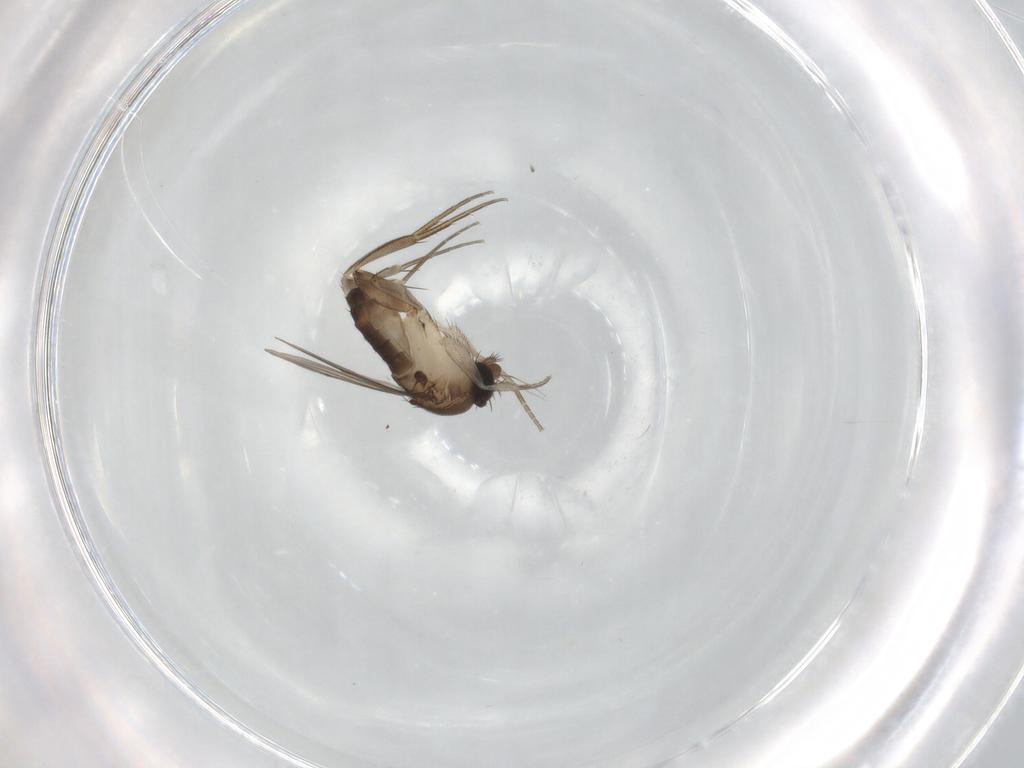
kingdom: Animalia
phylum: Arthropoda
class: Insecta
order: Diptera
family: Phoridae
